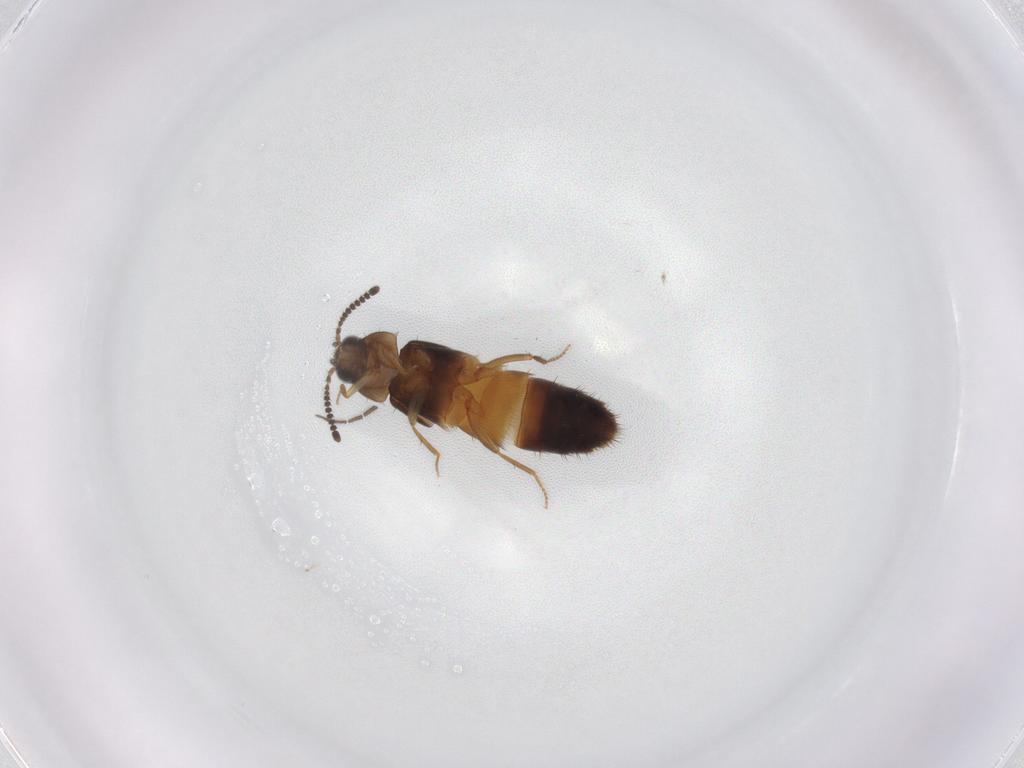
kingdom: Animalia
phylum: Arthropoda
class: Insecta
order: Coleoptera
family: Staphylinidae
